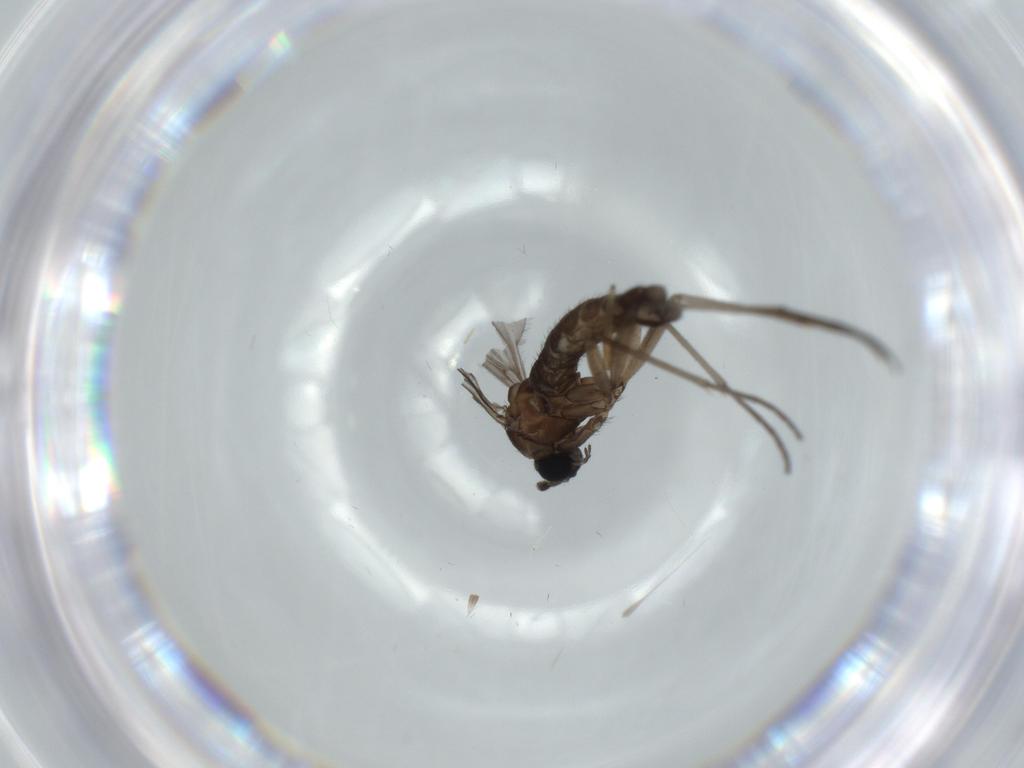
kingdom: Animalia
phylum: Arthropoda
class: Insecta
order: Diptera
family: Sciaridae
